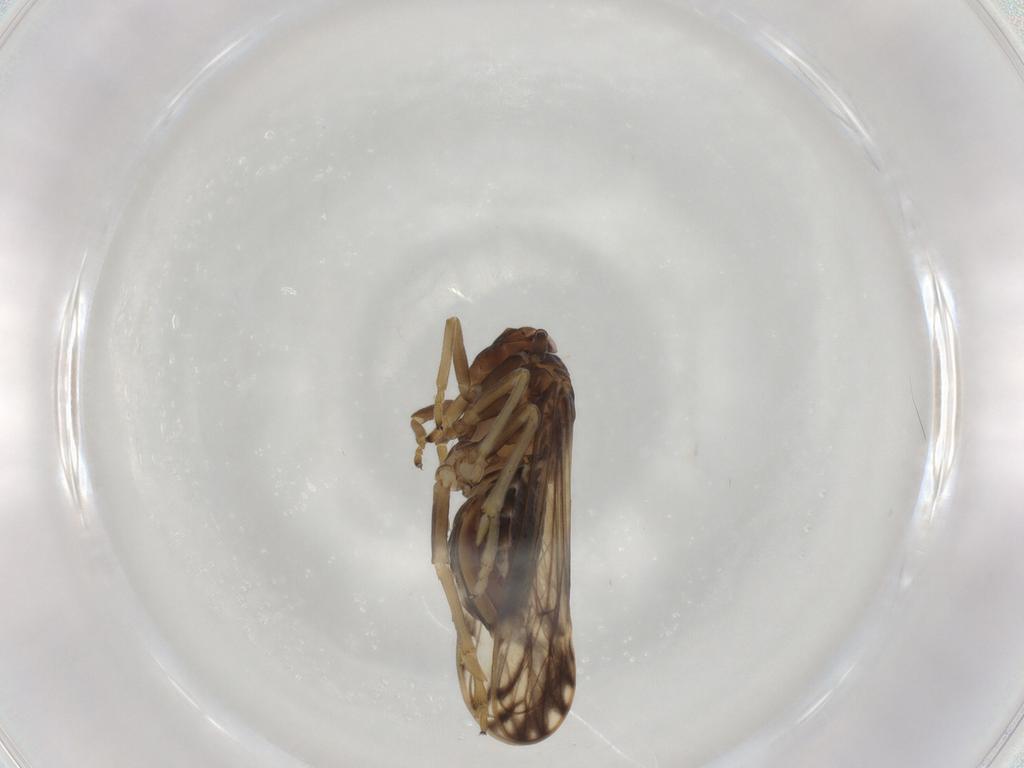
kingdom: Animalia
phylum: Arthropoda
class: Insecta
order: Hemiptera
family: Delphacidae
